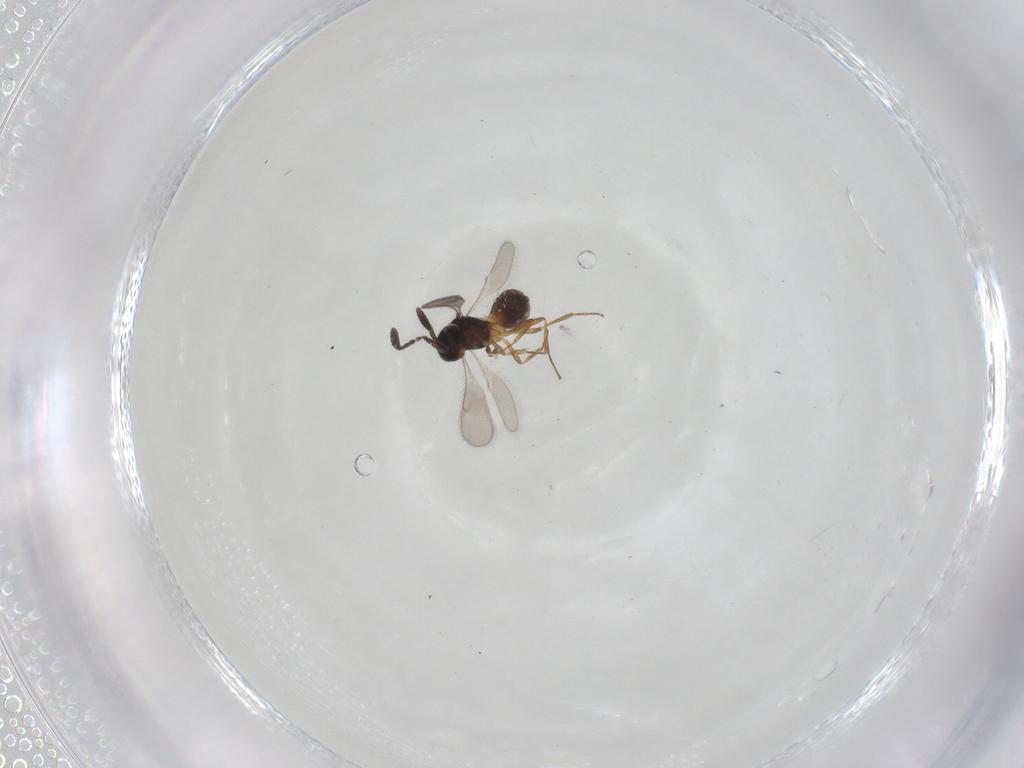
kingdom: Animalia
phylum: Arthropoda
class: Insecta
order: Hymenoptera
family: Scelionidae
